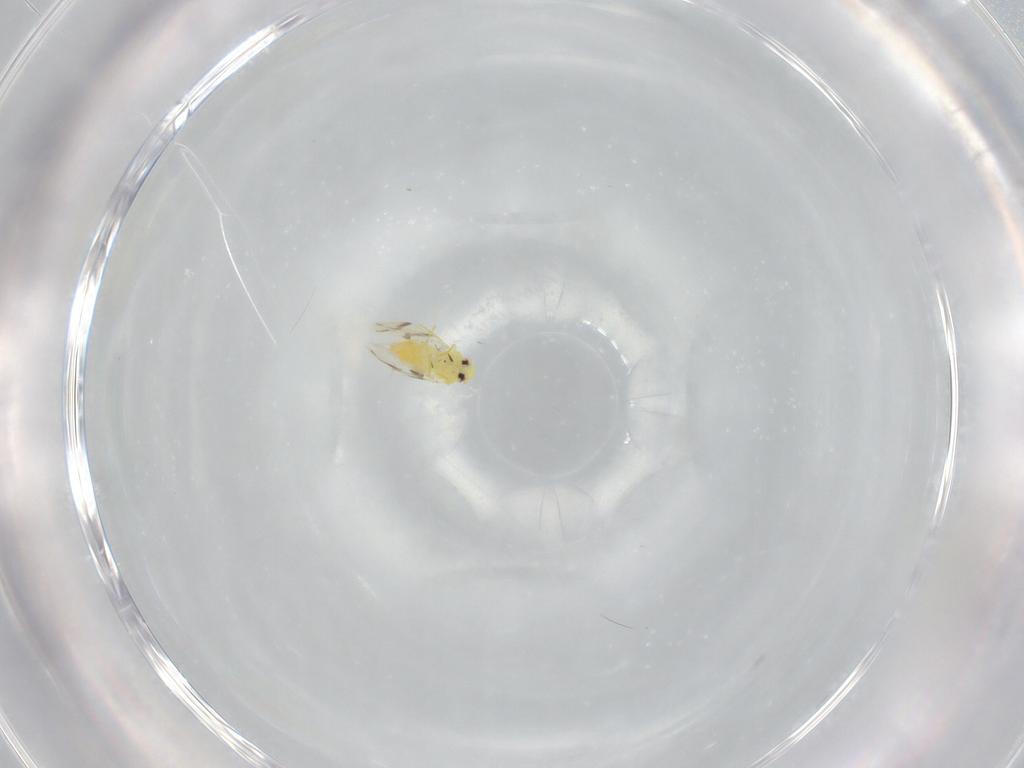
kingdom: Animalia
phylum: Arthropoda
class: Insecta
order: Hemiptera
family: Aleyrodidae
